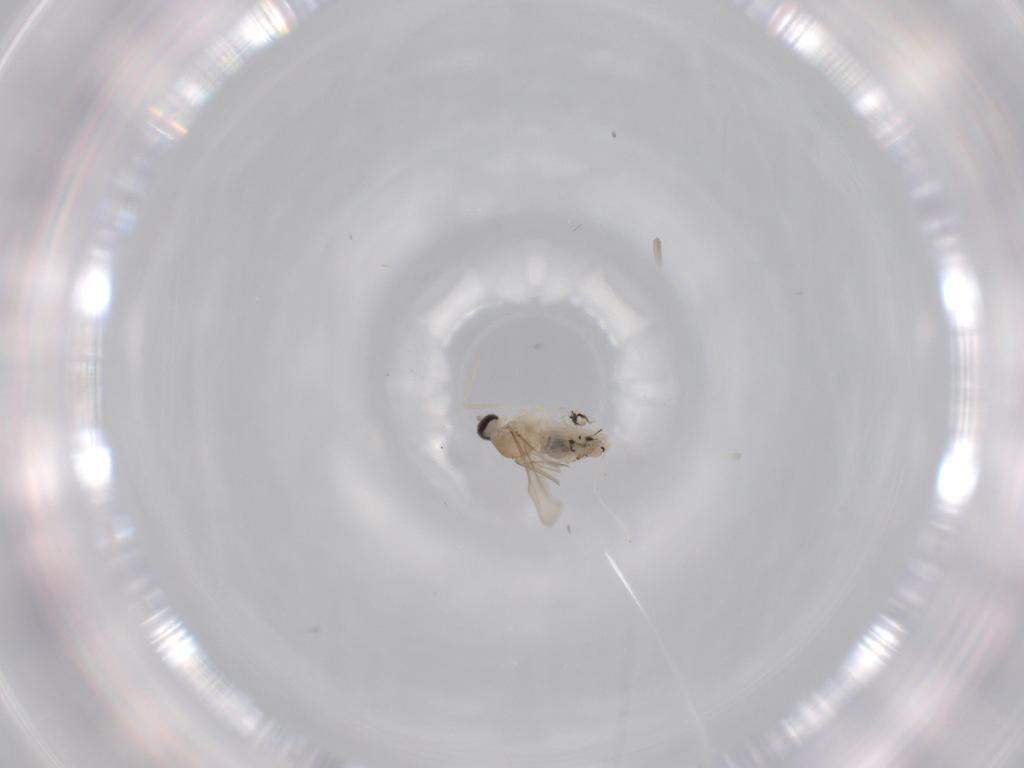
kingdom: Animalia
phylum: Arthropoda
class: Insecta
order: Diptera
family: Cecidomyiidae
